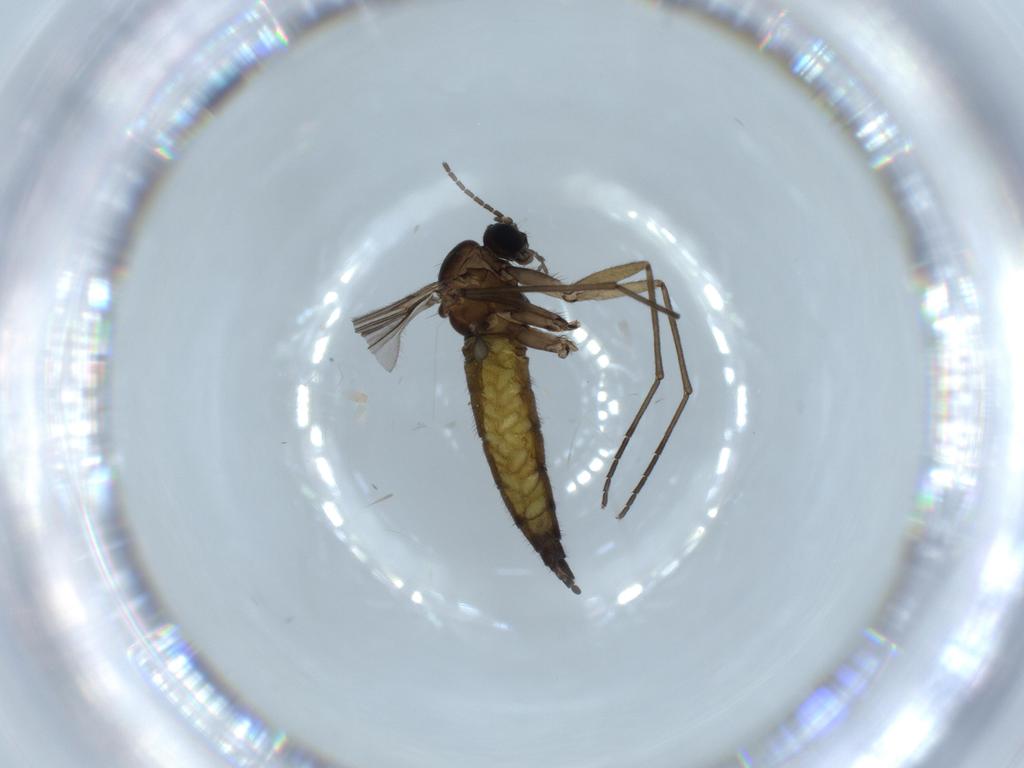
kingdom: Animalia
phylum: Arthropoda
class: Insecta
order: Diptera
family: Sciaridae
